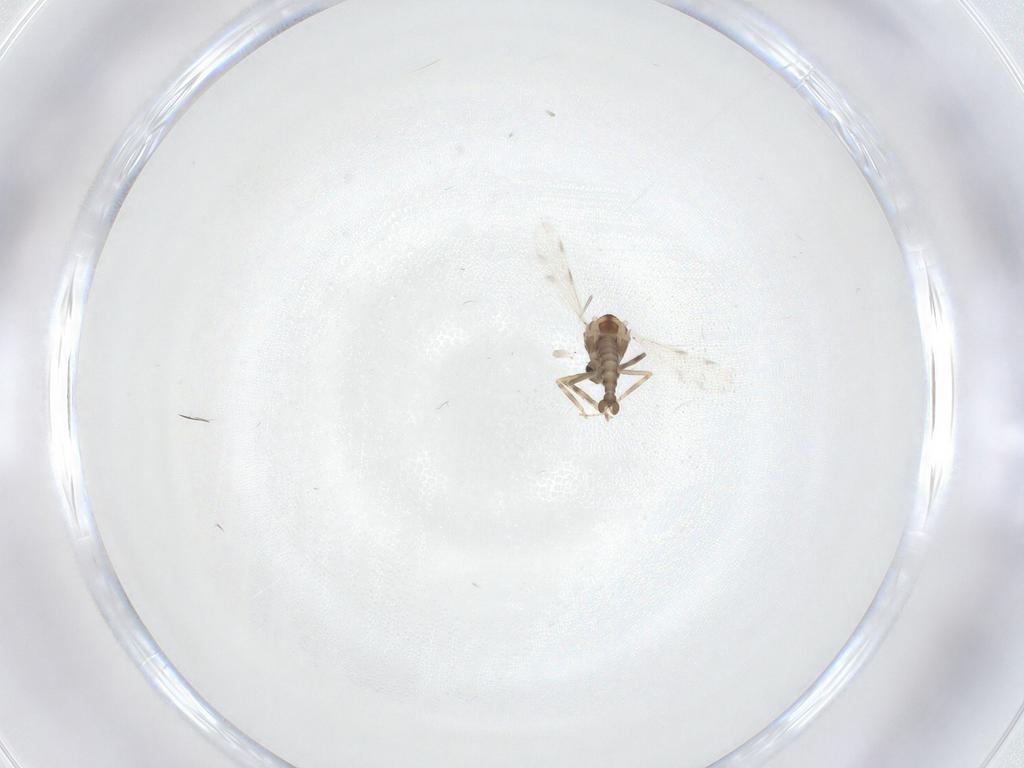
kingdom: Animalia
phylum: Arthropoda
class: Insecta
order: Diptera
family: Ceratopogonidae
